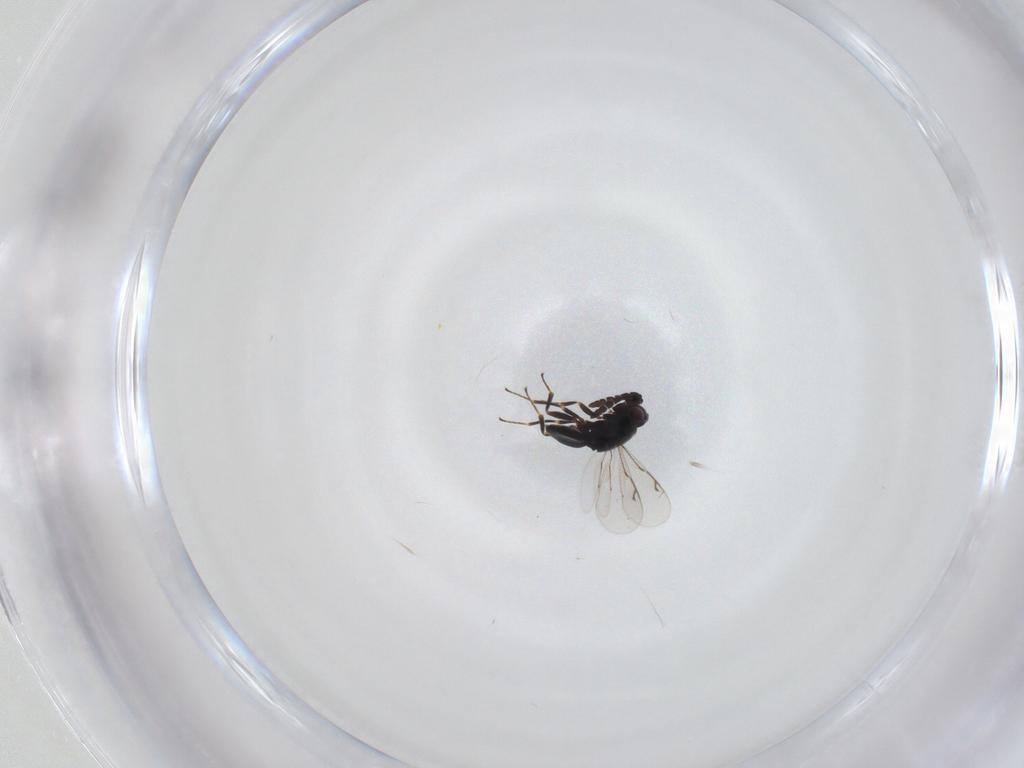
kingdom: Animalia
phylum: Arthropoda
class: Insecta
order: Hymenoptera
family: Eunotidae
